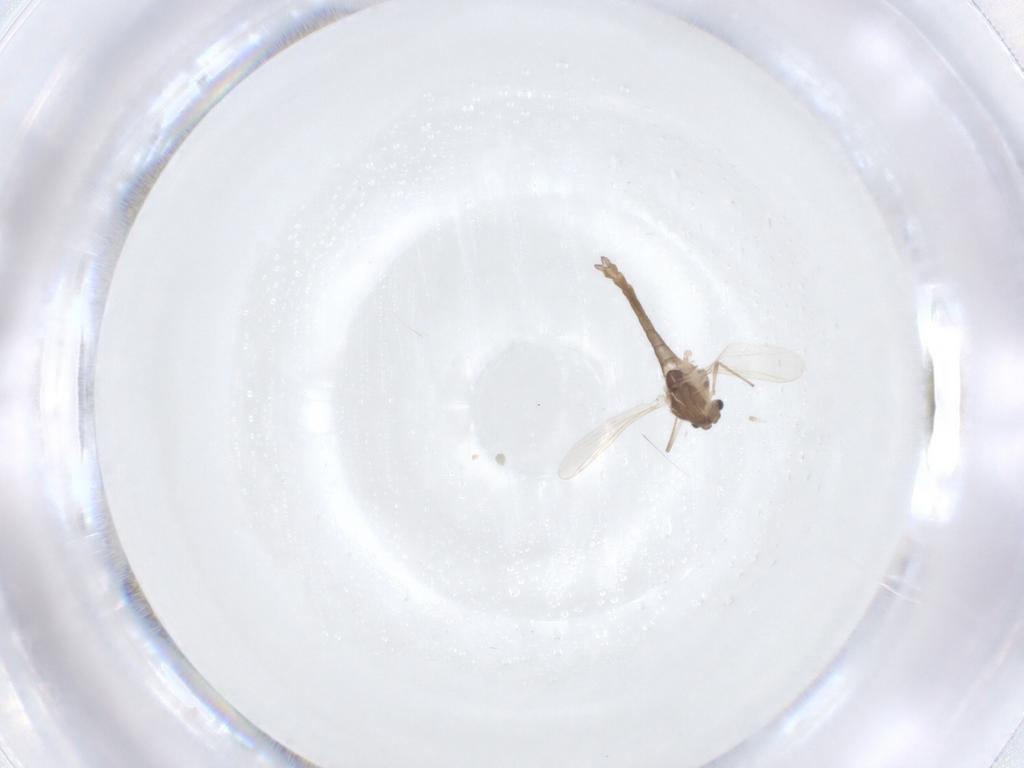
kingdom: Animalia
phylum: Arthropoda
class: Insecta
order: Diptera
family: Chironomidae
